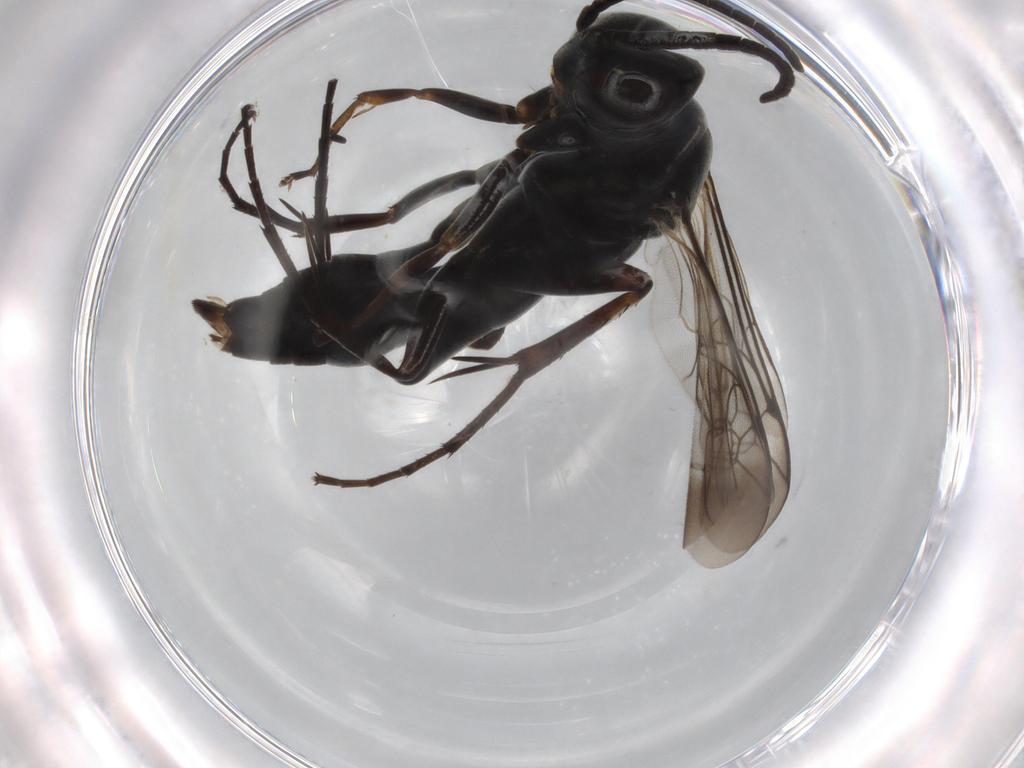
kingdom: Animalia
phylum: Arthropoda
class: Insecta
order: Hymenoptera
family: Pompilidae
